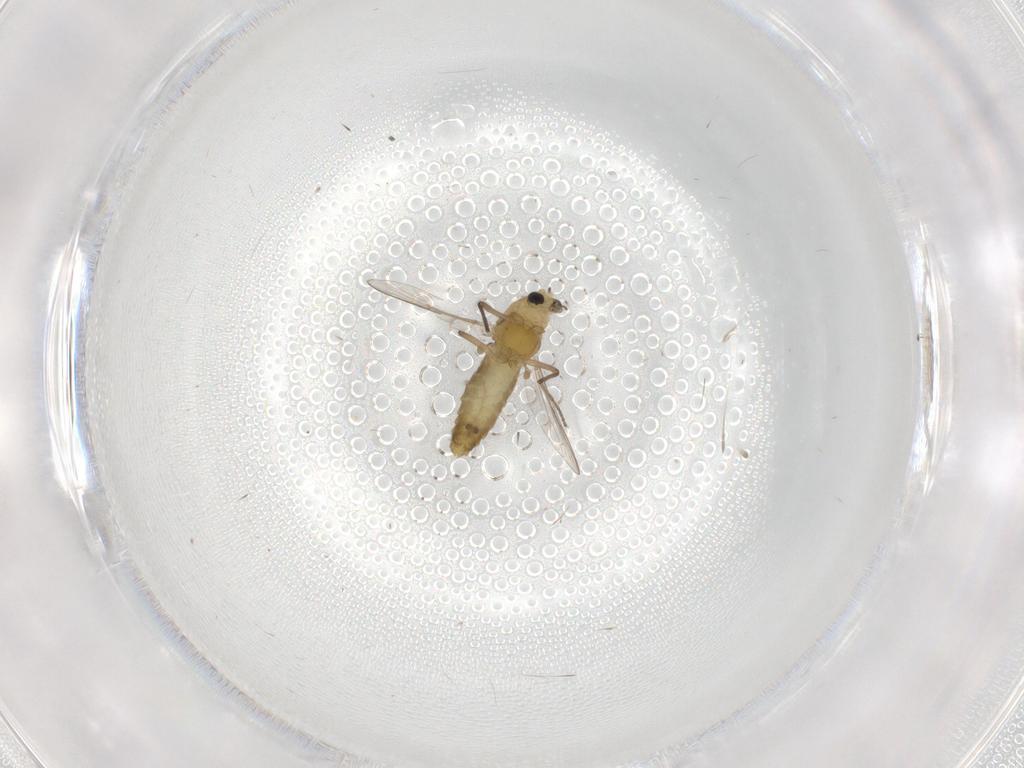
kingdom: Animalia
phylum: Arthropoda
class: Insecta
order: Diptera
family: Chironomidae
